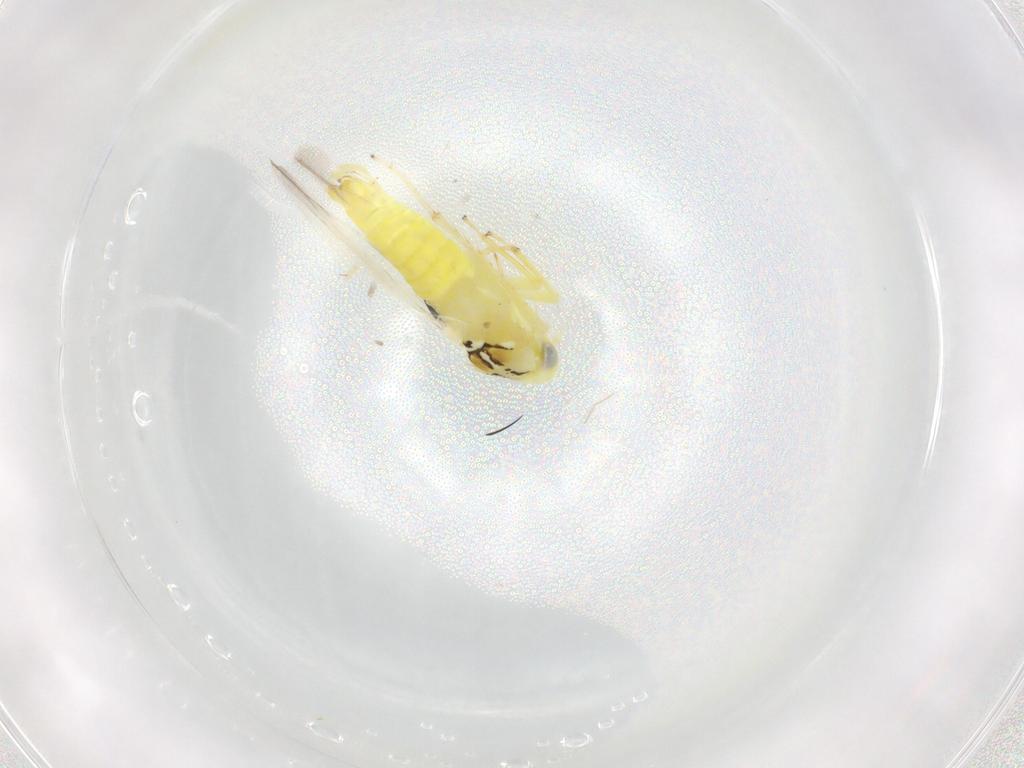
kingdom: Animalia
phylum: Arthropoda
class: Insecta
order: Hemiptera
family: Cicadellidae
